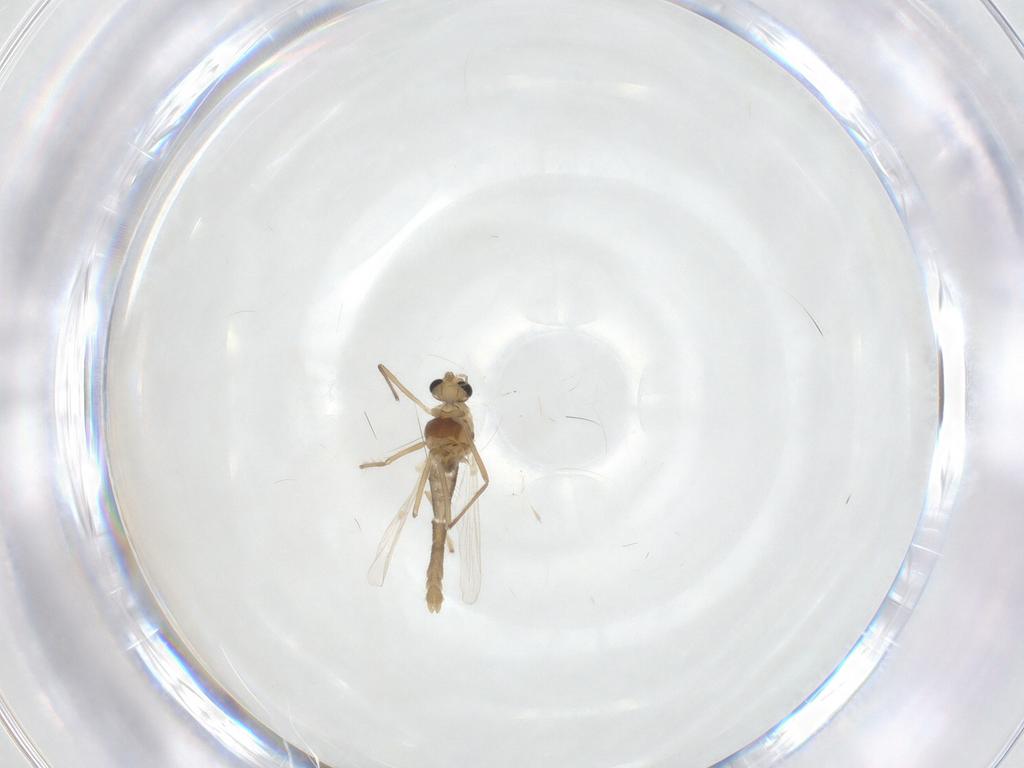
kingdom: Animalia
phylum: Arthropoda
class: Insecta
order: Diptera
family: Chironomidae
